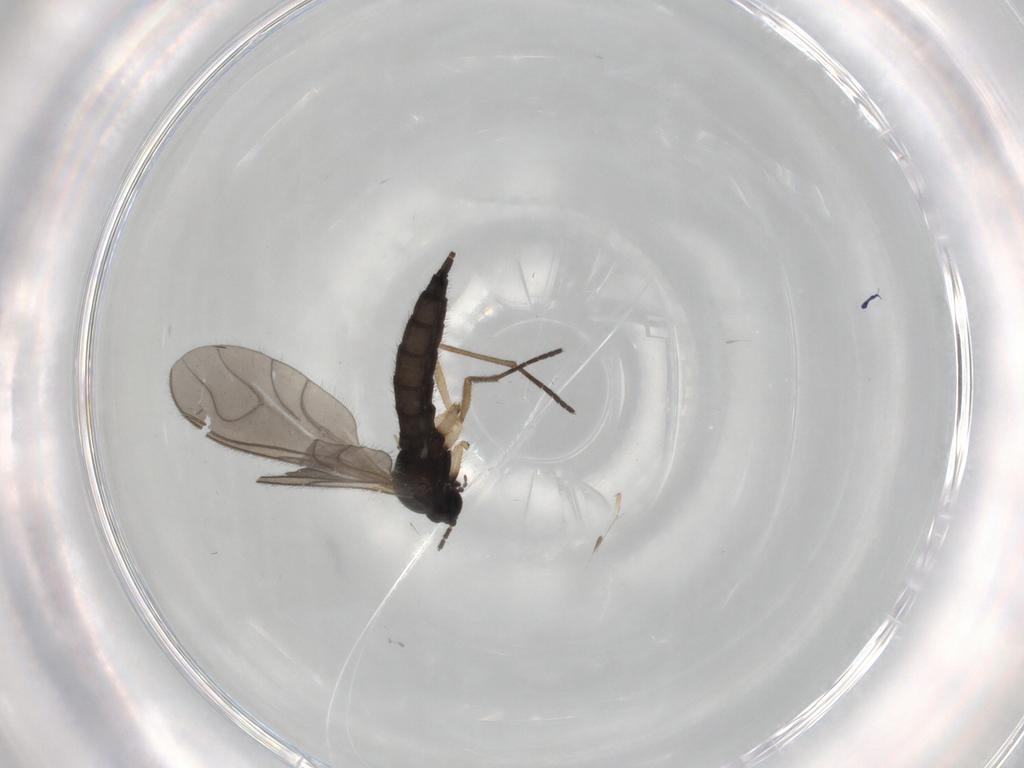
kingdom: Animalia
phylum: Arthropoda
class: Insecta
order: Diptera
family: Sciaridae
